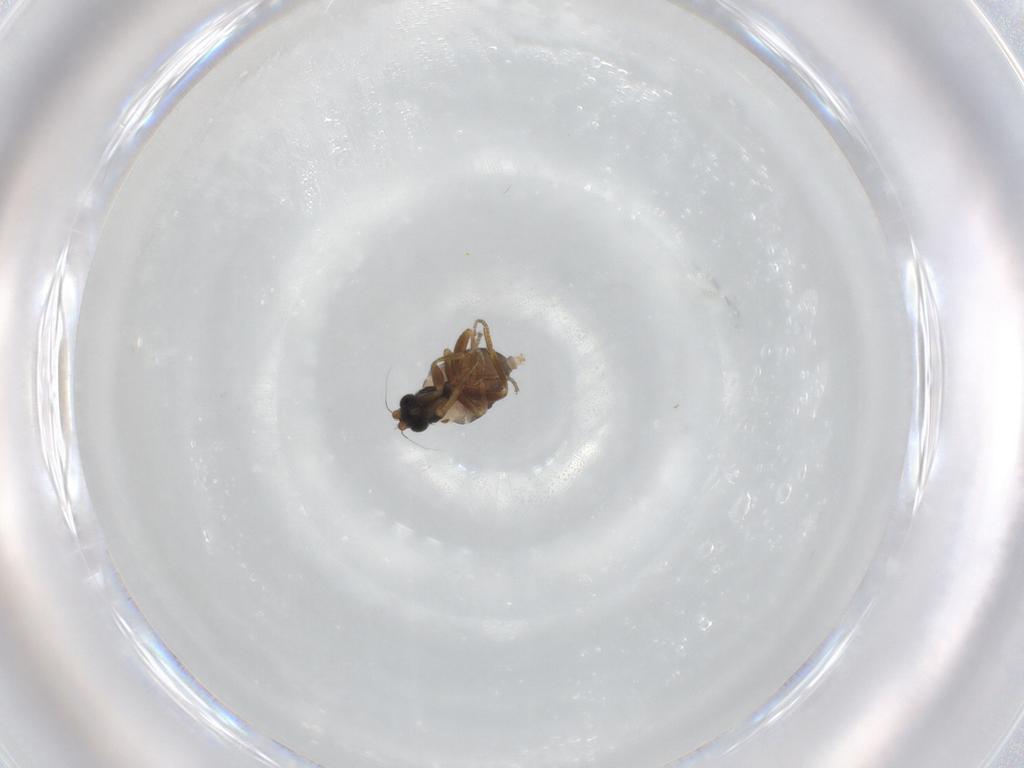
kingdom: Animalia
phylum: Arthropoda
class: Insecta
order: Diptera
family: Phoridae
